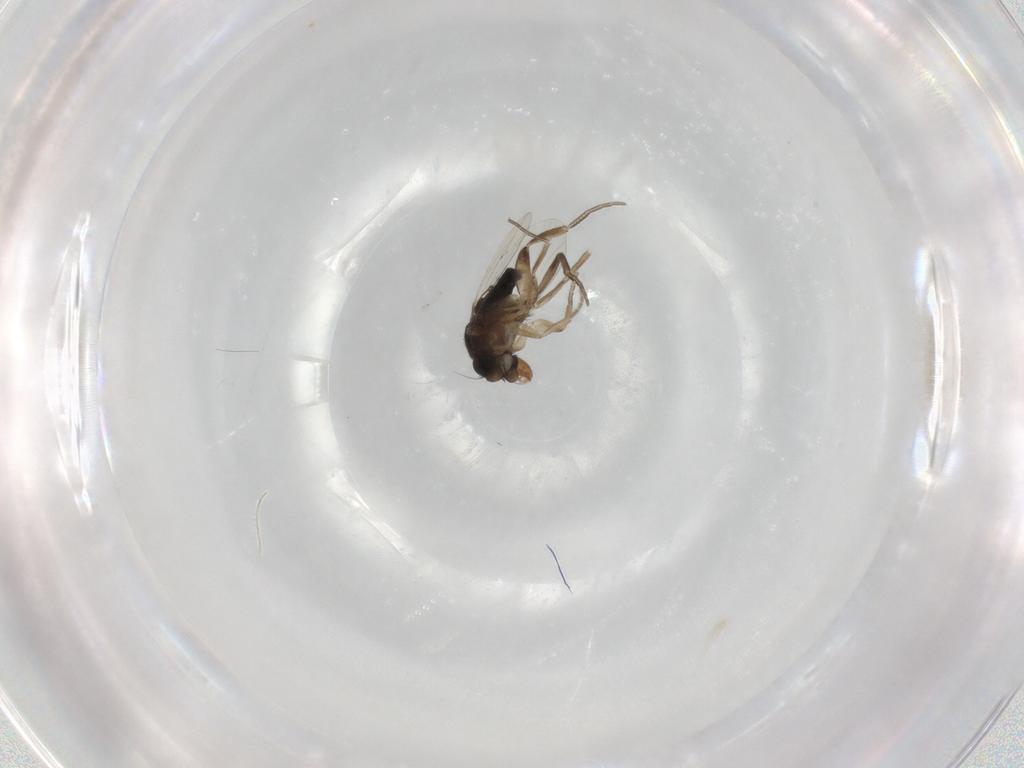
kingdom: Animalia
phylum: Arthropoda
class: Insecta
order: Diptera
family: Phoridae
